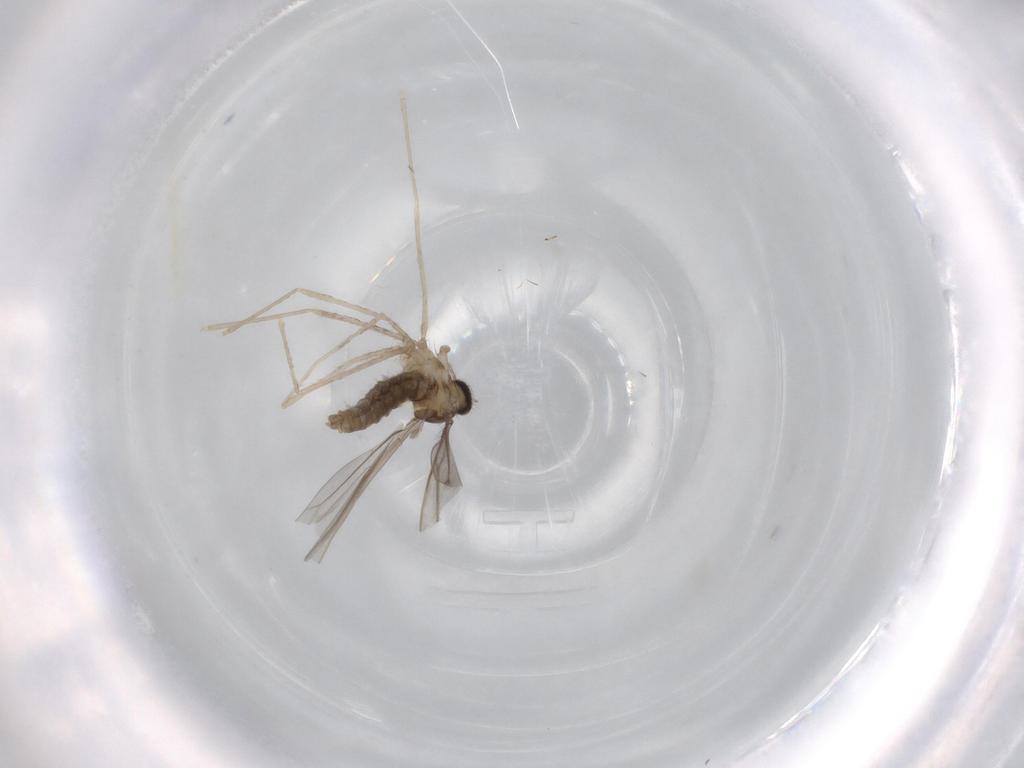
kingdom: Animalia
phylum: Arthropoda
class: Insecta
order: Diptera
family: Cecidomyiidae
